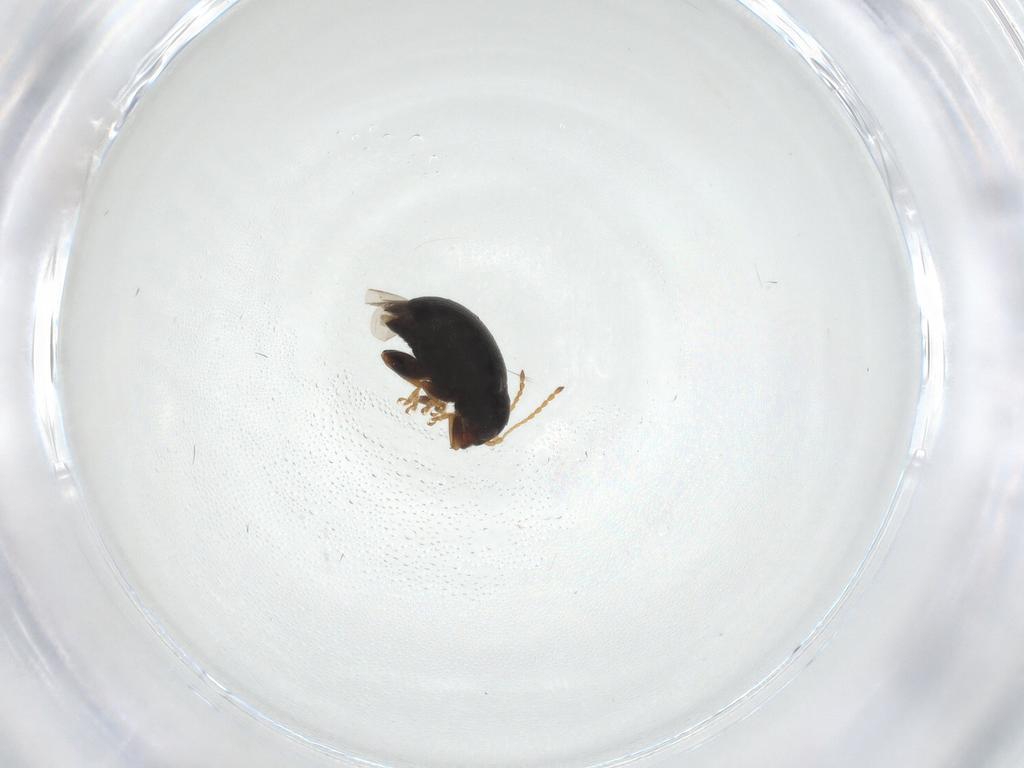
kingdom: Animalia
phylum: Arthropoda
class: Insecta
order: Coleoptera
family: Chrysomelidae
